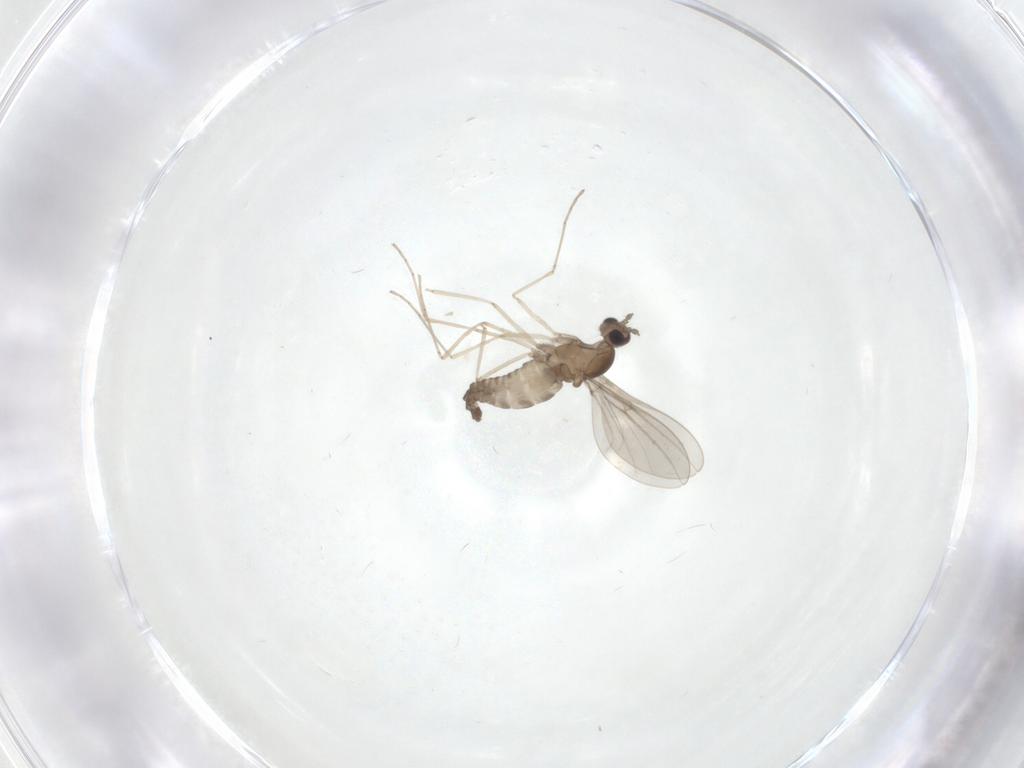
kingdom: Animalia
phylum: Arthropoda
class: Insecta
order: Diptera
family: Cecidomyiidae
